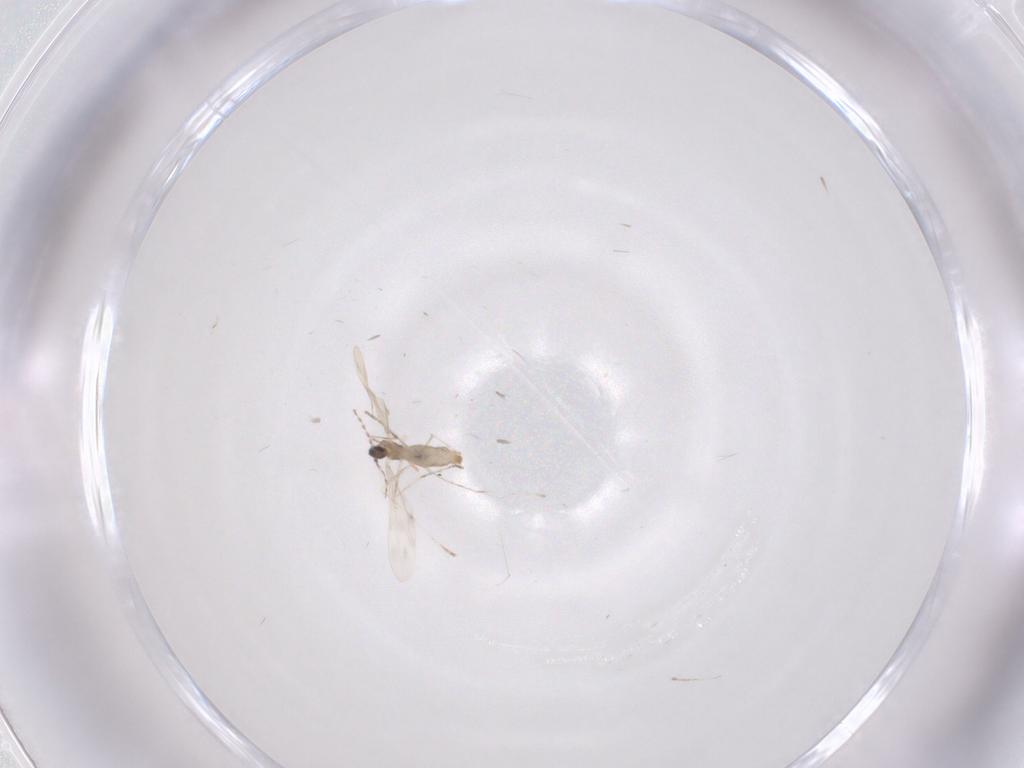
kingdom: Animalia
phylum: Arthropoda
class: Insecta
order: Diptera
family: Cecidomyiidae
